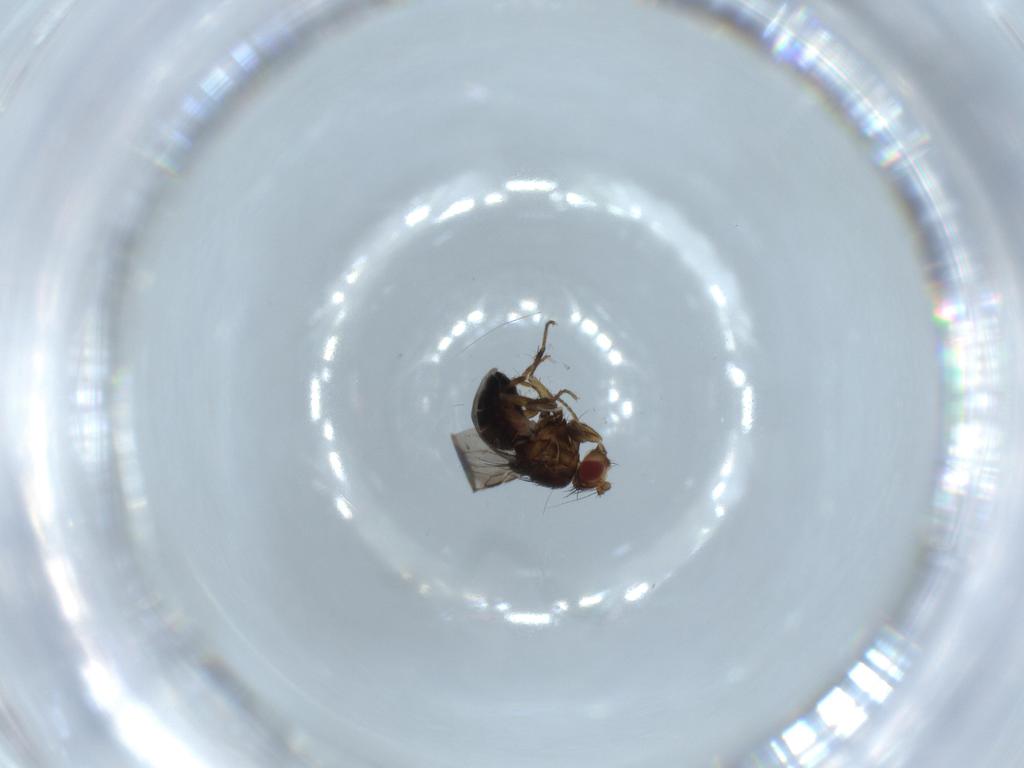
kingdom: Animalia
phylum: Arthropoda
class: Insecta
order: Diptera
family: Sphaeroceridae
